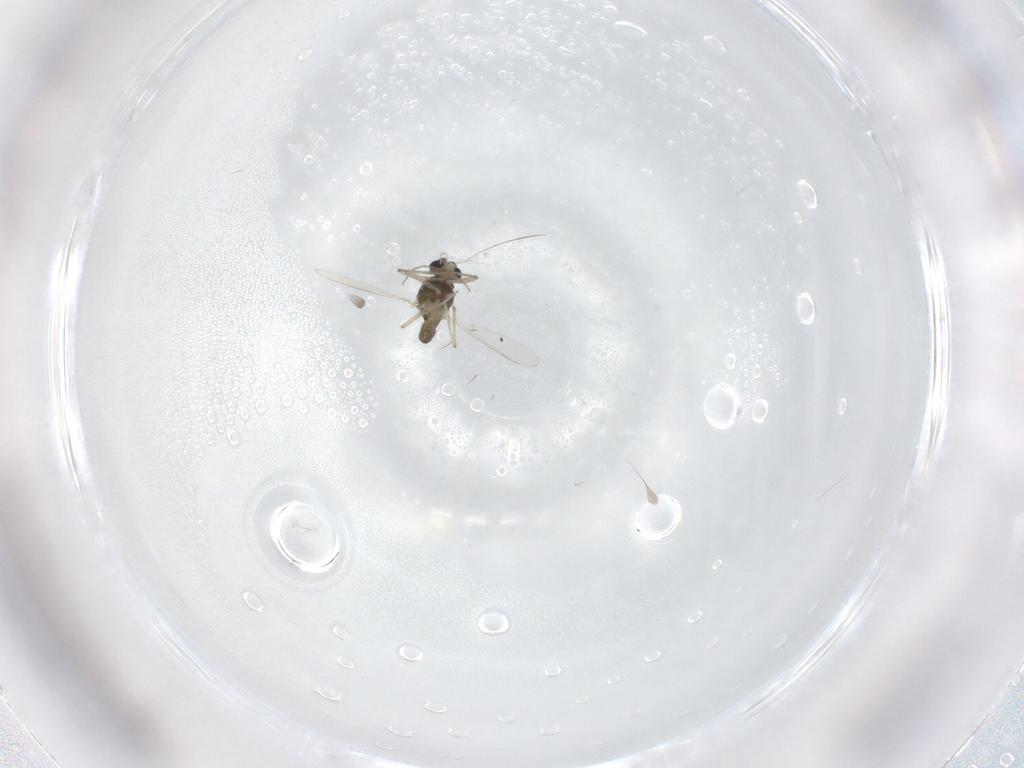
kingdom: Animalia
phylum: Arthropoda
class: Insecta
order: Diptera
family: Chironomidae
